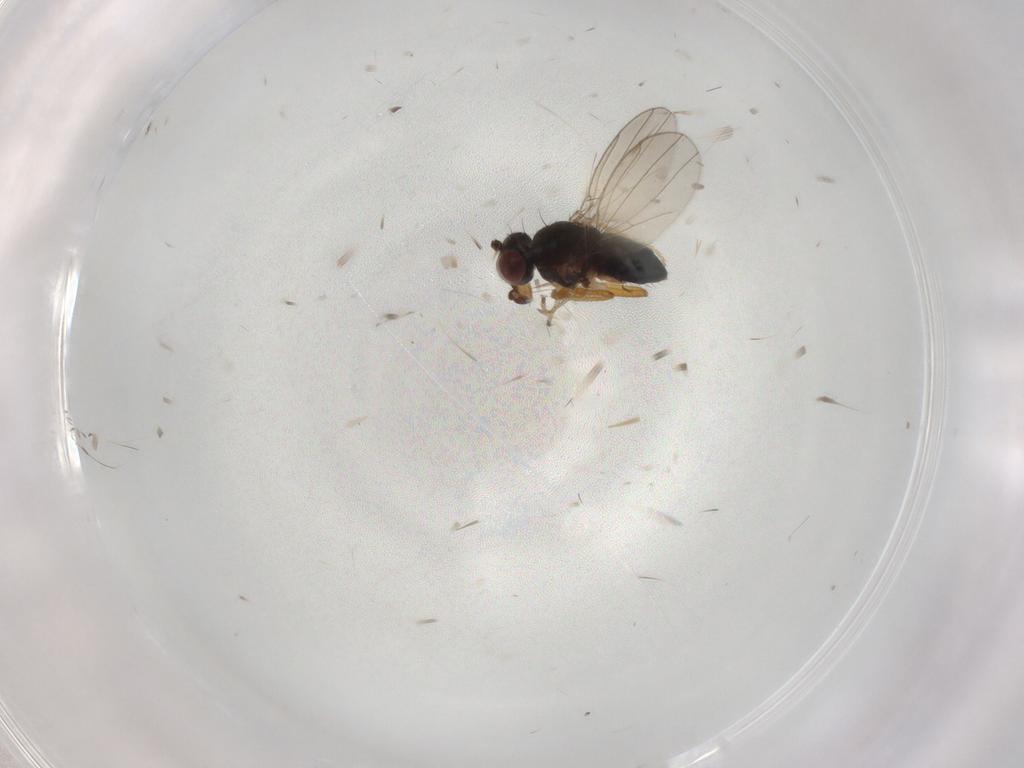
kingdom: Animalia
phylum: Arthropoda
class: Insecta
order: Diptera
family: Ephydridae
